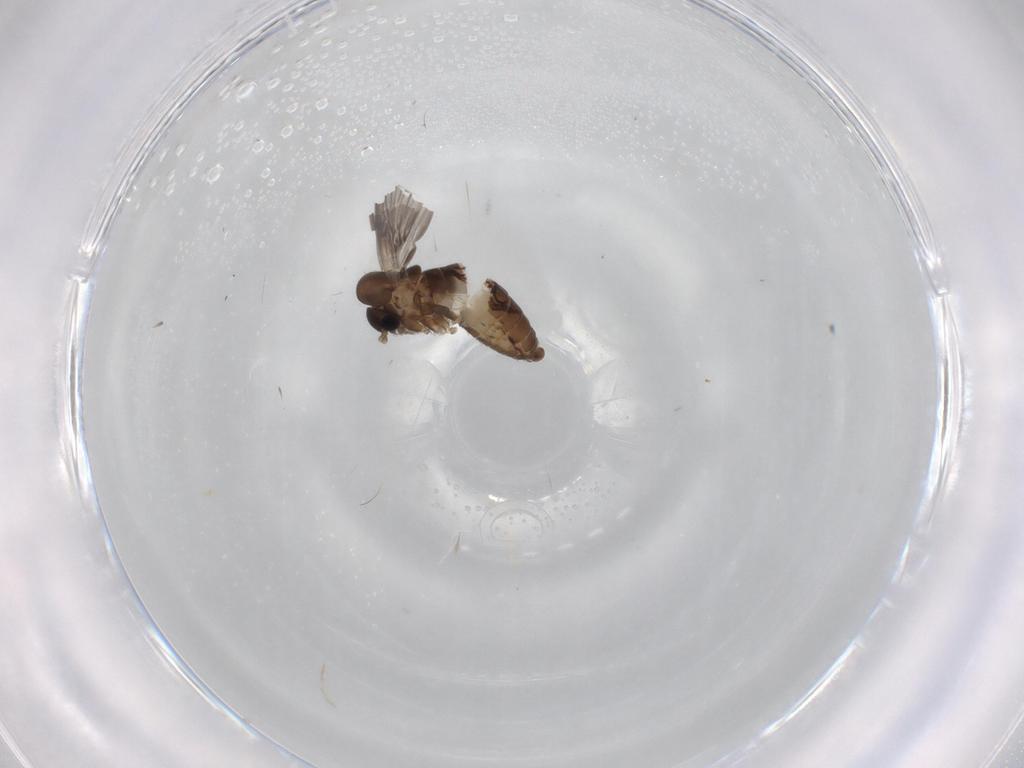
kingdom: Animalia
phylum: Arthropoda
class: Insecta
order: Diptera
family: Psychodidae
